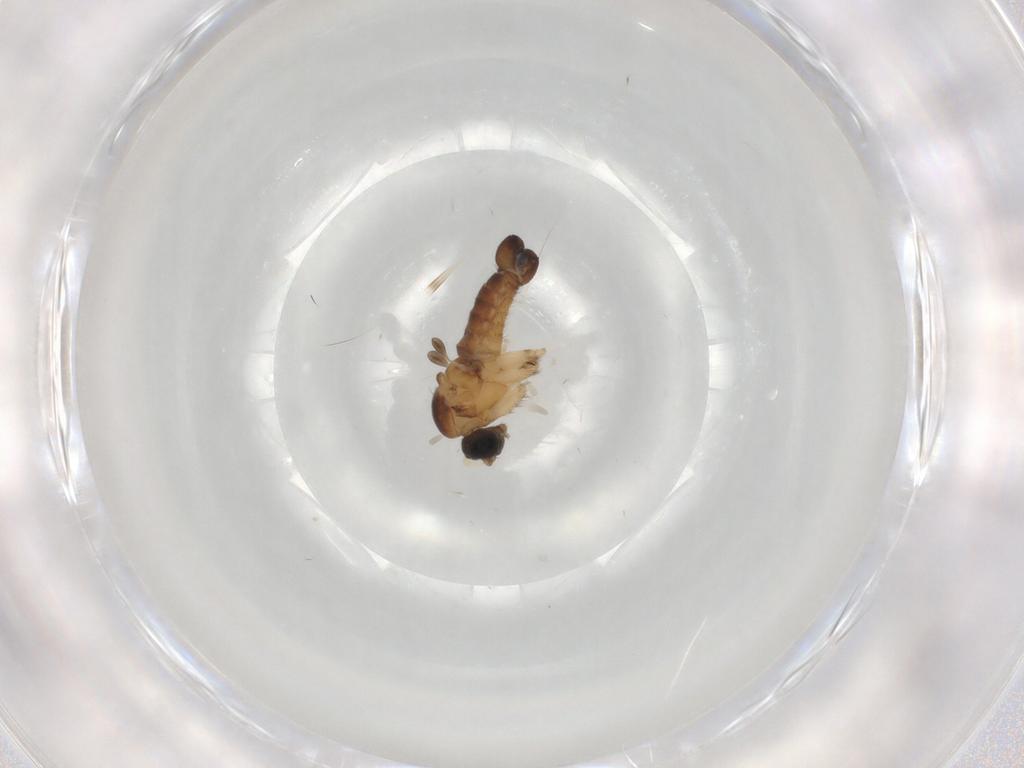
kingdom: Animalia
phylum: Arthropoda
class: Insecta
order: Diptera
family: Sciaridae
